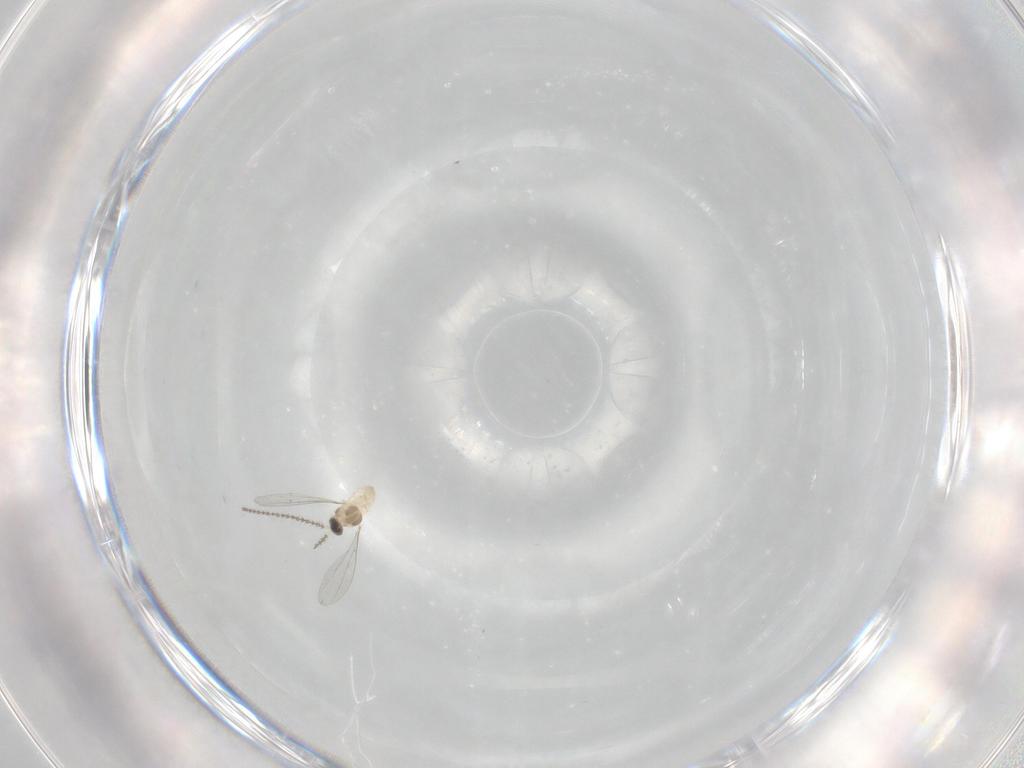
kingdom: Animalia
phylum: Arthropoda
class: Insecta
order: Diptera
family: Cecidomyiidae
